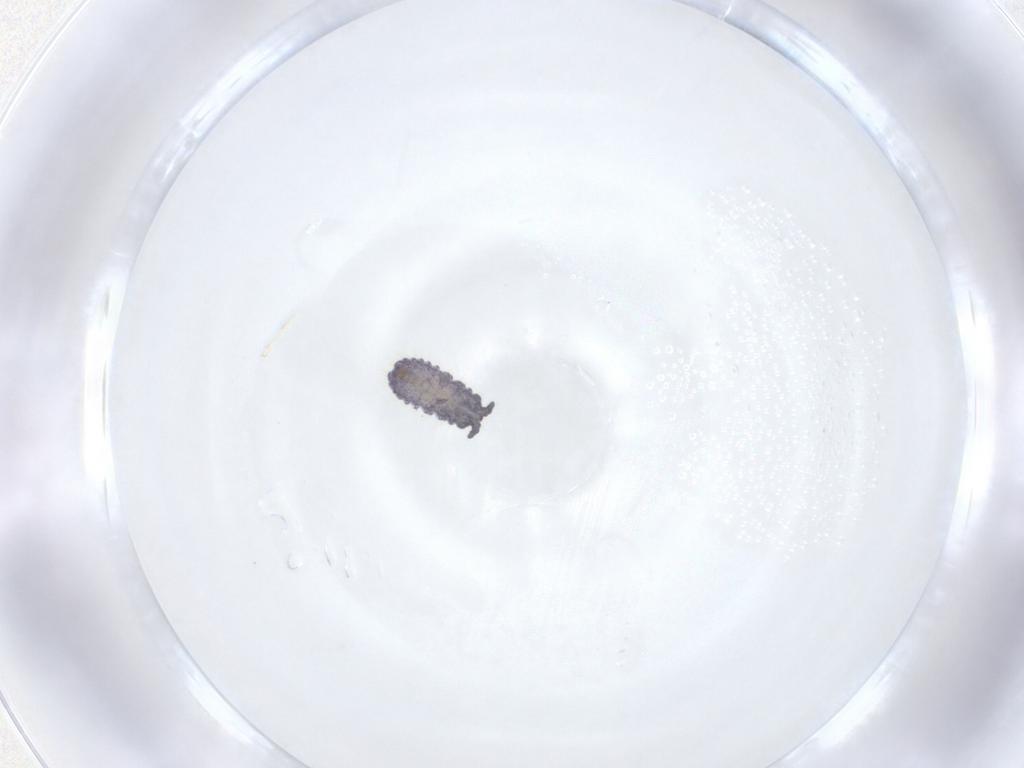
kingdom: Animalia
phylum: Arthropoda
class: Collembola
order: Poduromorpha
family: Neanuridae
